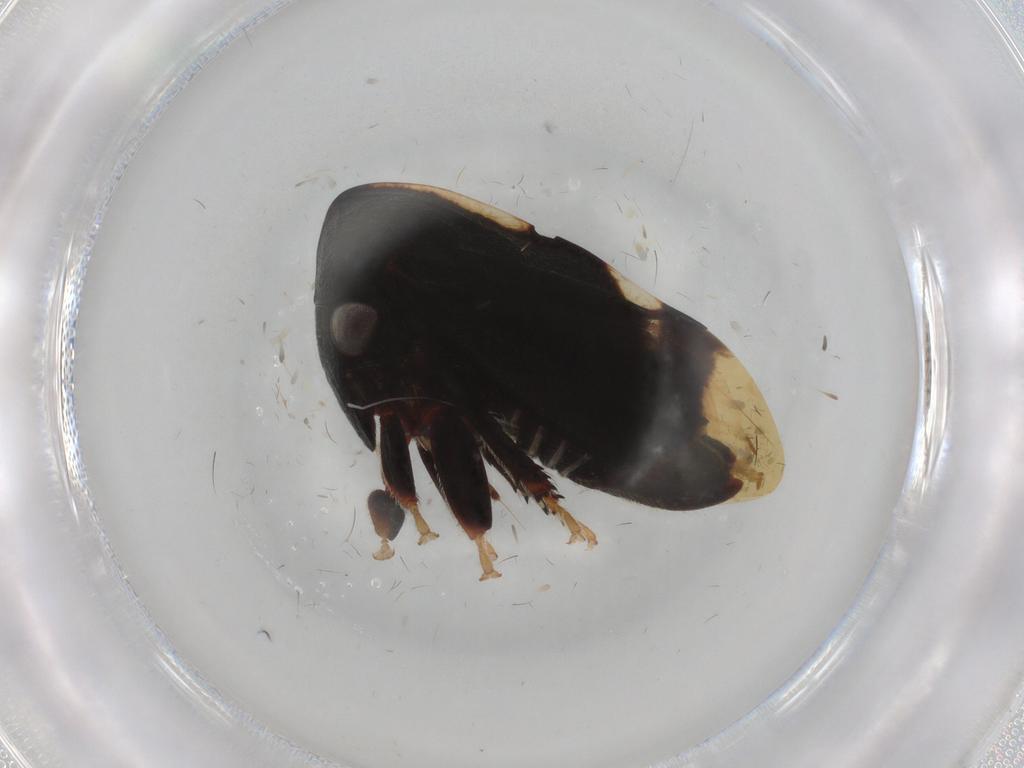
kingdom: Animalia
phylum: Arthropoda
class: Insecta
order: Hemiptera
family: Membracidae
